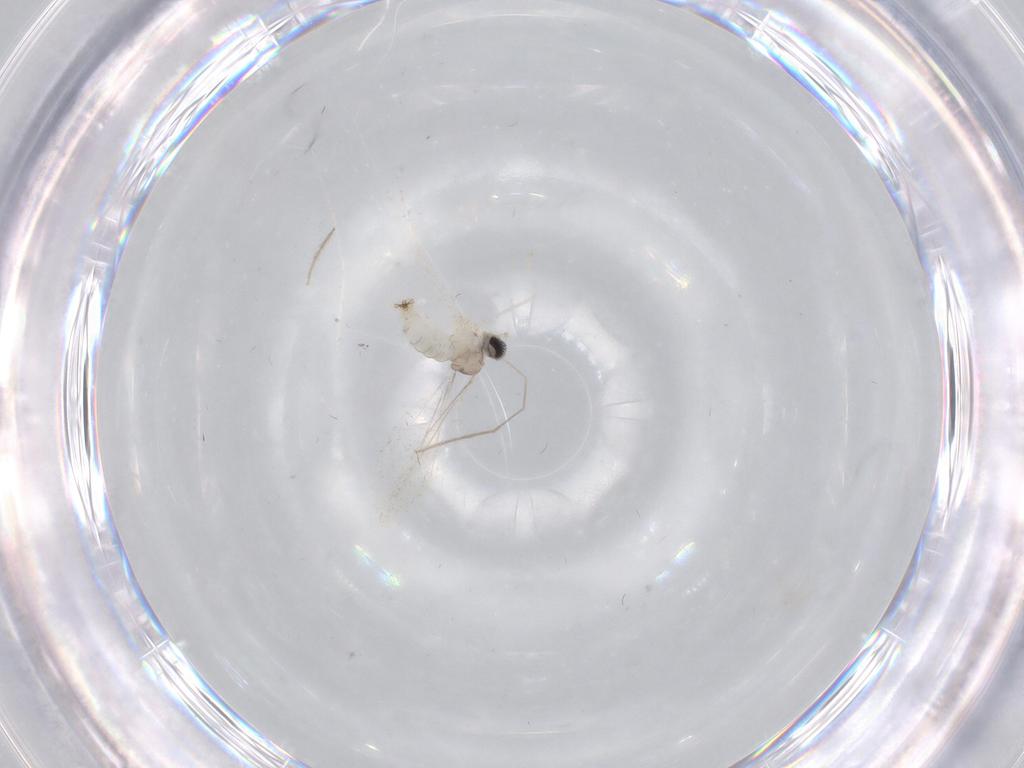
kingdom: Animalia
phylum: Arthropoda
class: Insecta
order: Diptera
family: Cecidomyiidae
